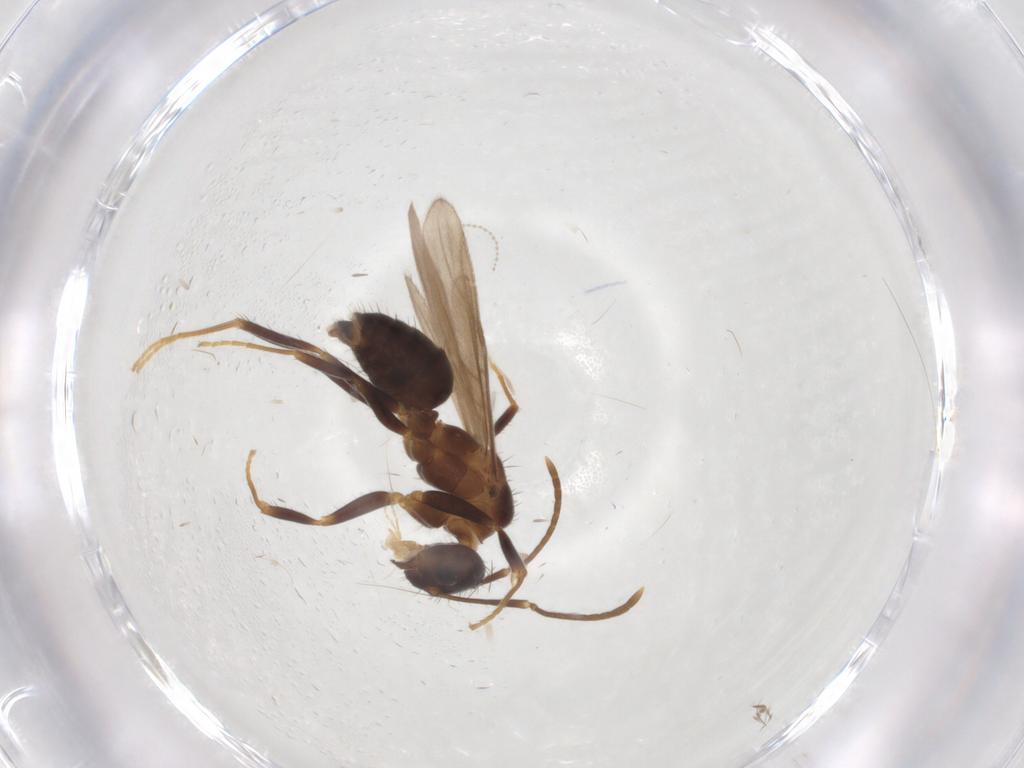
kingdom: Animalia
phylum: Arthropoda
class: Insecta
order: Hymenoptera
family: Formicidae
